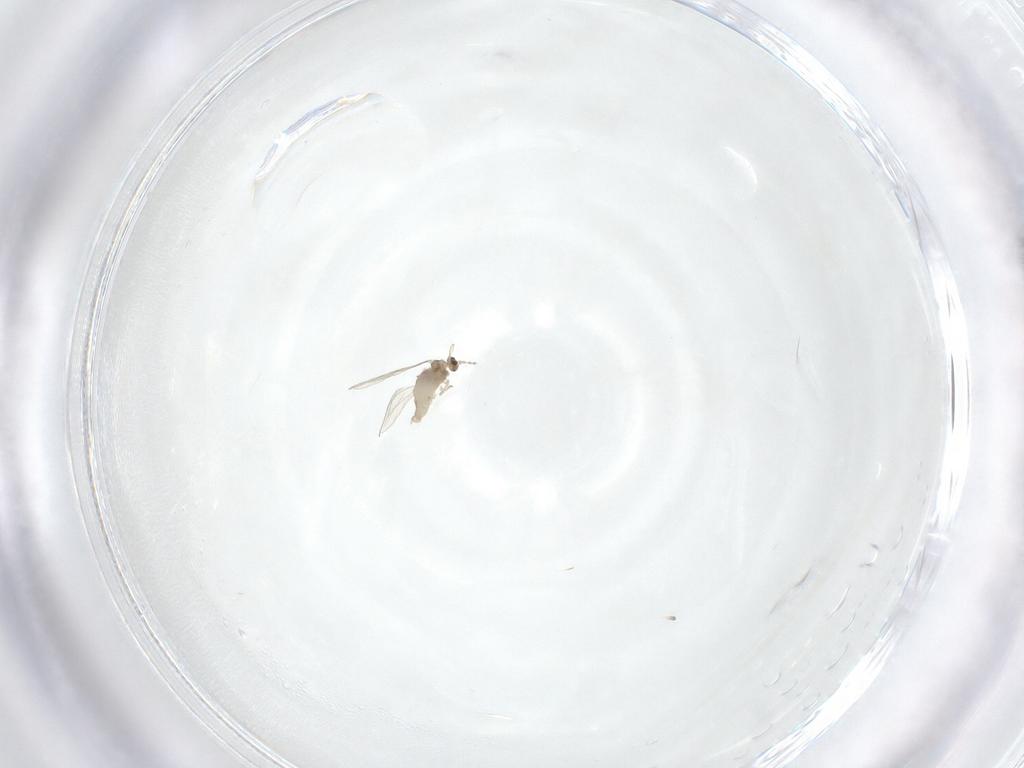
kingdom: Animalia
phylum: Arthropoda
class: Insecta
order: Diptera
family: Cecidomyiidae
